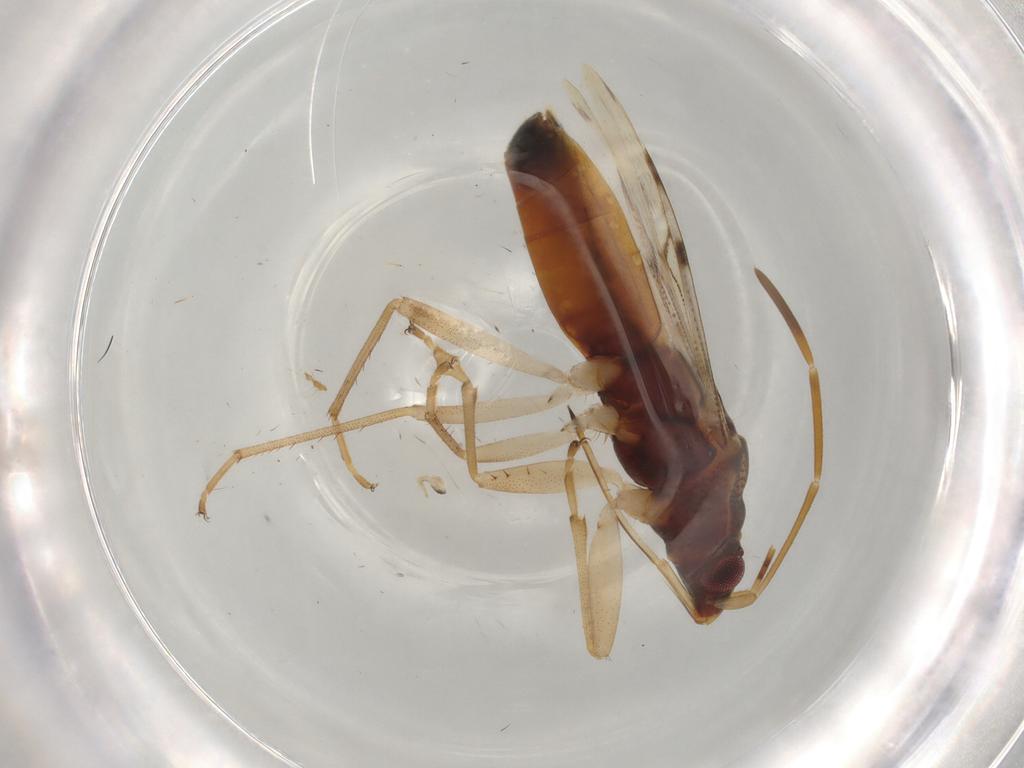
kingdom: Animalia
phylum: Arthropoda
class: Insecta
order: Hemiptera
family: Rhyparochromidae
